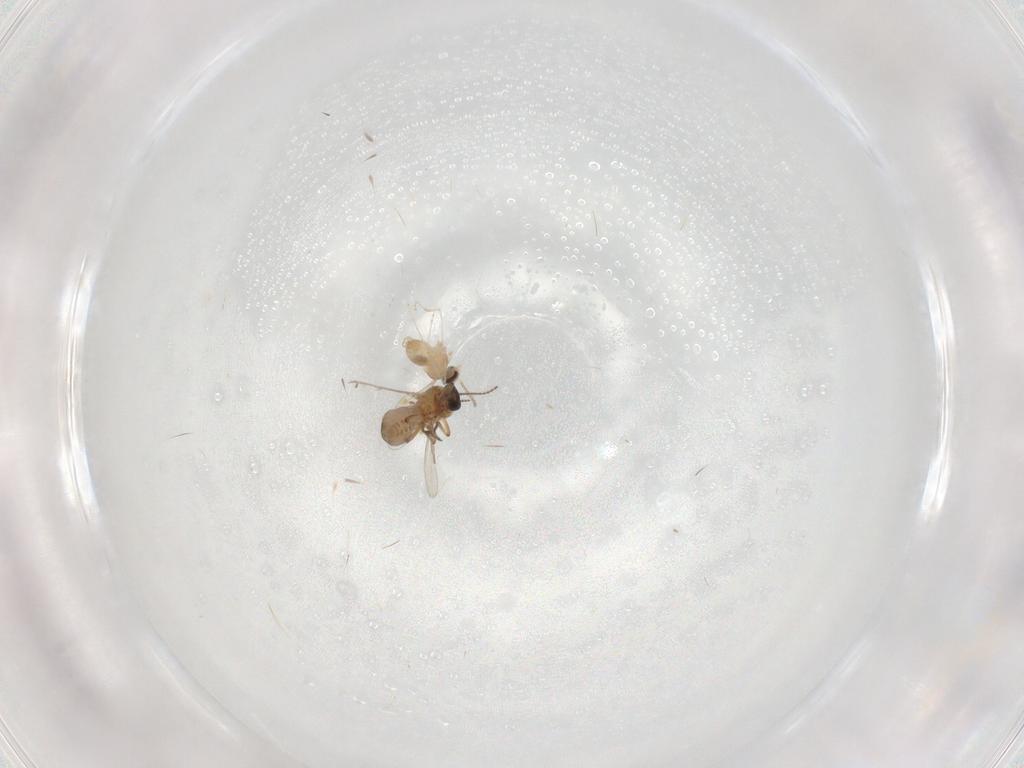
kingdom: Animalia
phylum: Arthropoda
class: Insecta
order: Diptera
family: Ceratopogonidae
